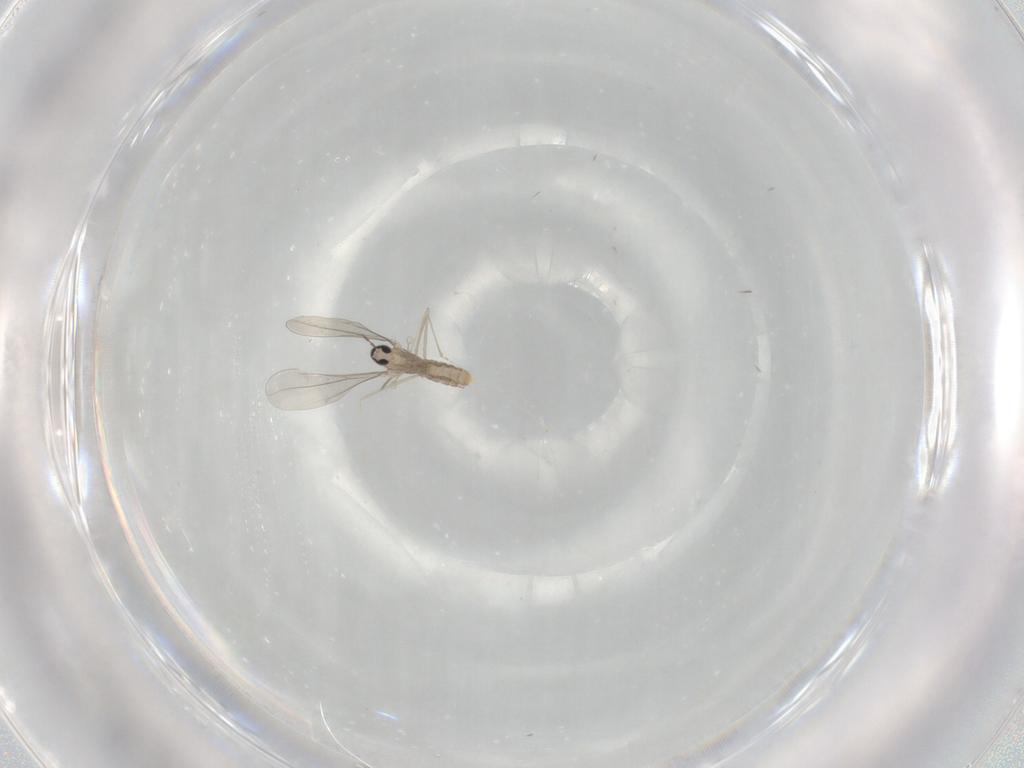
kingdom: Animalia
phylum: Arthropoda
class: Insecta
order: Diptera
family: Cecidomyiidae
